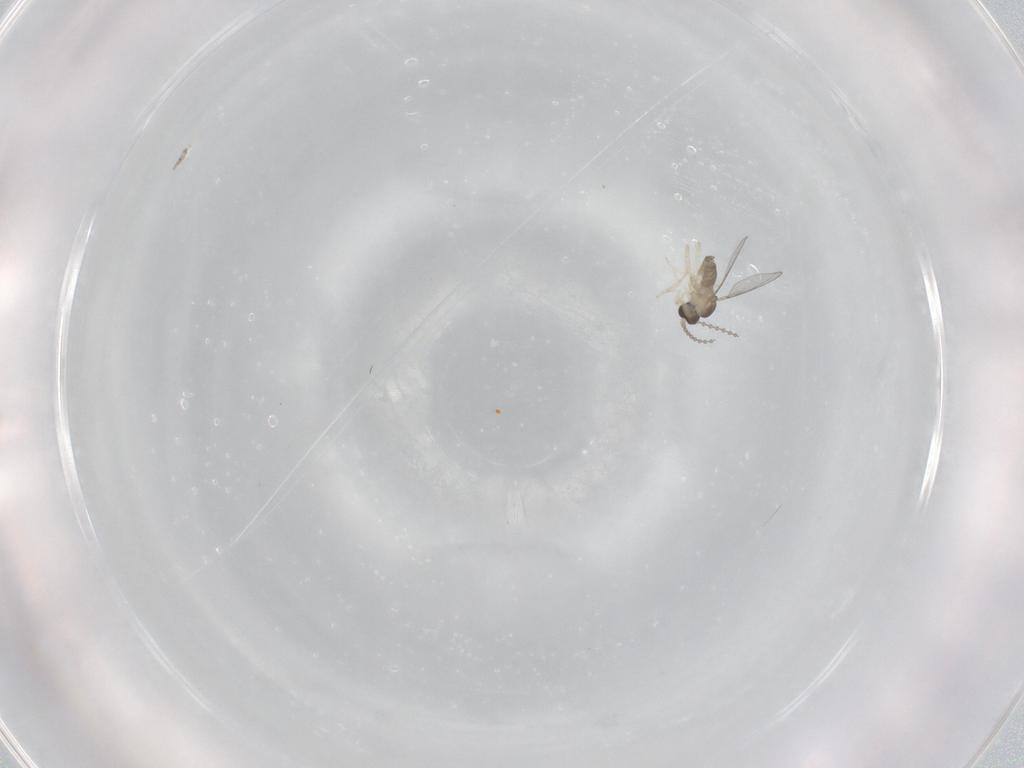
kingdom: Animalia
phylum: Arthropoda
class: Insecta
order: Diptera
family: Cecidomyiidae
